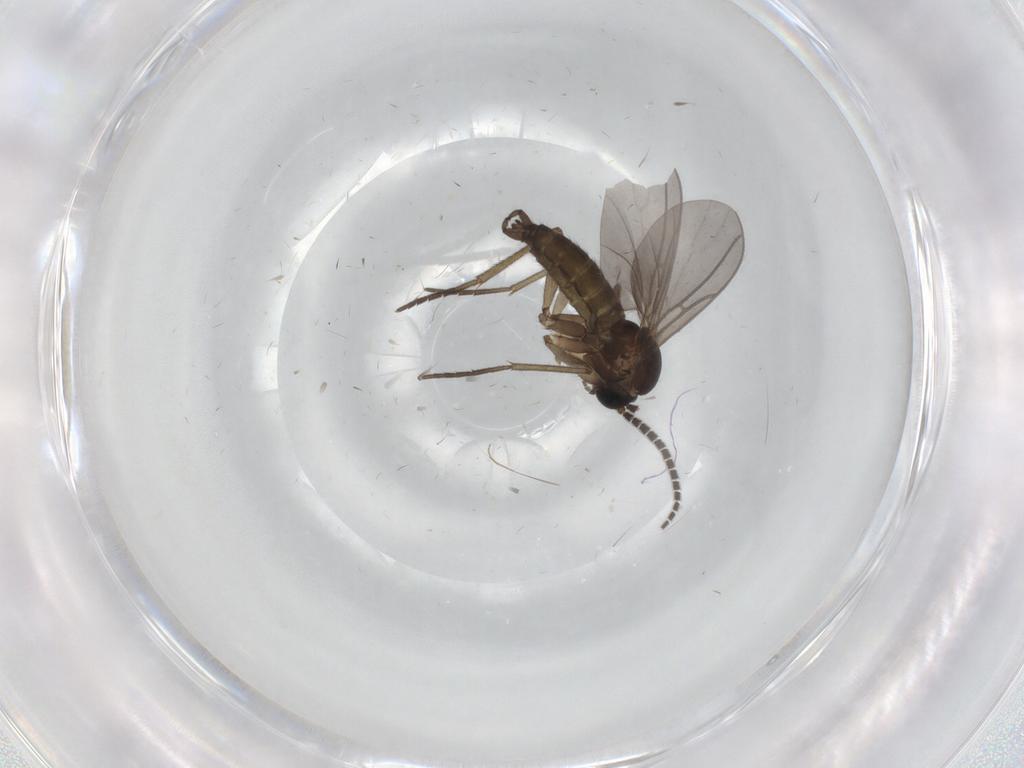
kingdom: Animalia
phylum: Arthropoda
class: Insecta
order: Diptera
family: Sciaridae
